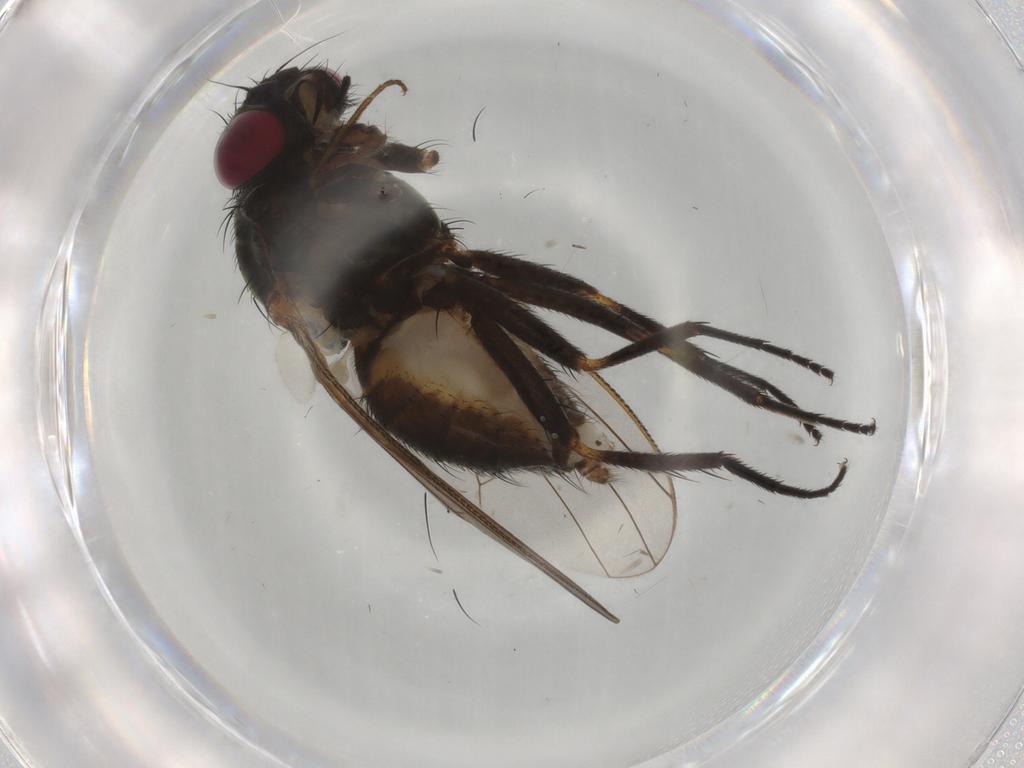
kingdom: Animalia
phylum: Arthropoda
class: Insecta
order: Diptera
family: Fannia
